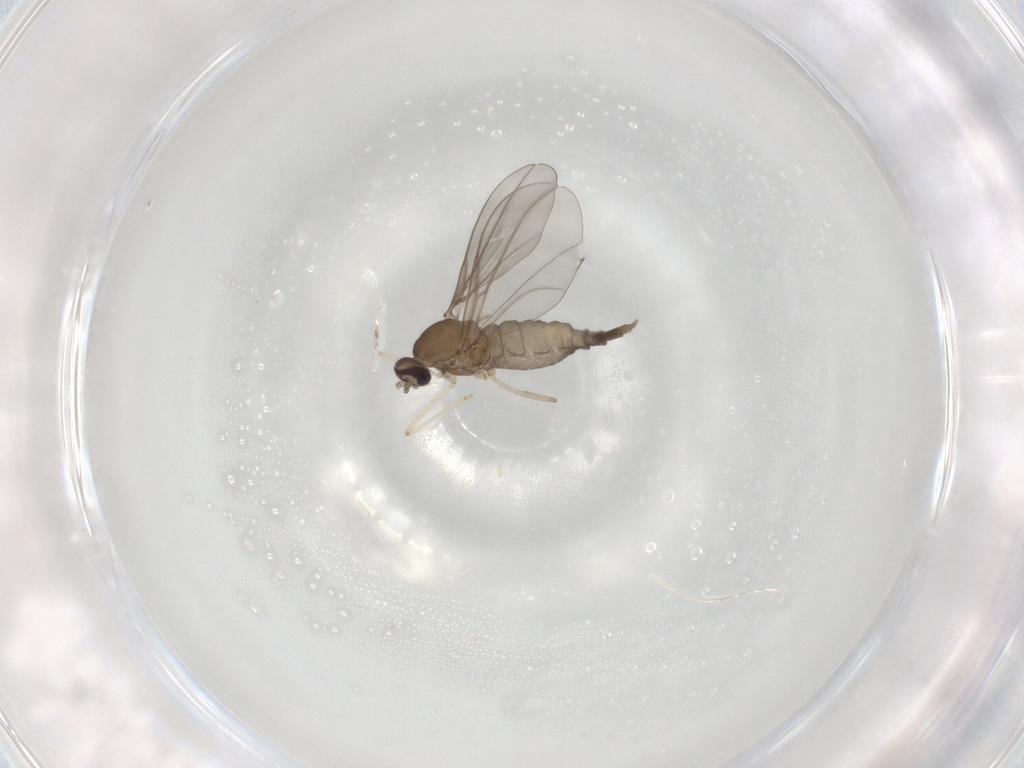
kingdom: Animalia
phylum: Arthropoda
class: Insecta
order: Diptera
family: Cecidomyiidae
